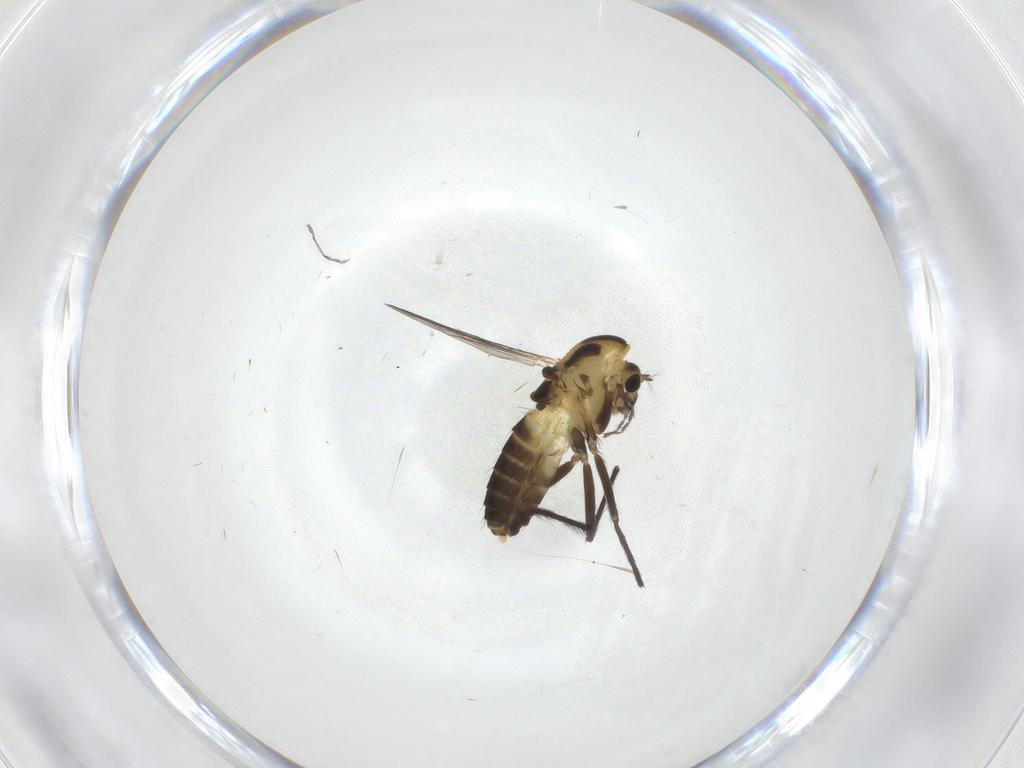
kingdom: Animalia
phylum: Arthropoda
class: Insecta
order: Diptera
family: Chironomidae
